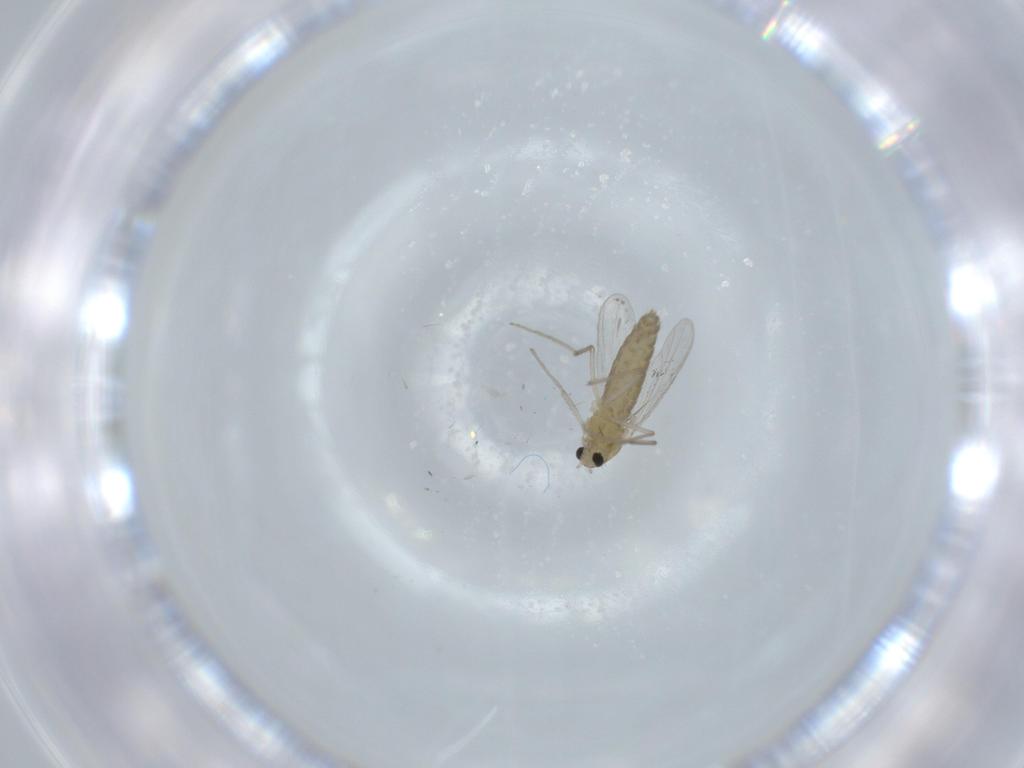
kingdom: Animalia
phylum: Arthropoda
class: Insecta
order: Diptera
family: Chironomidae
